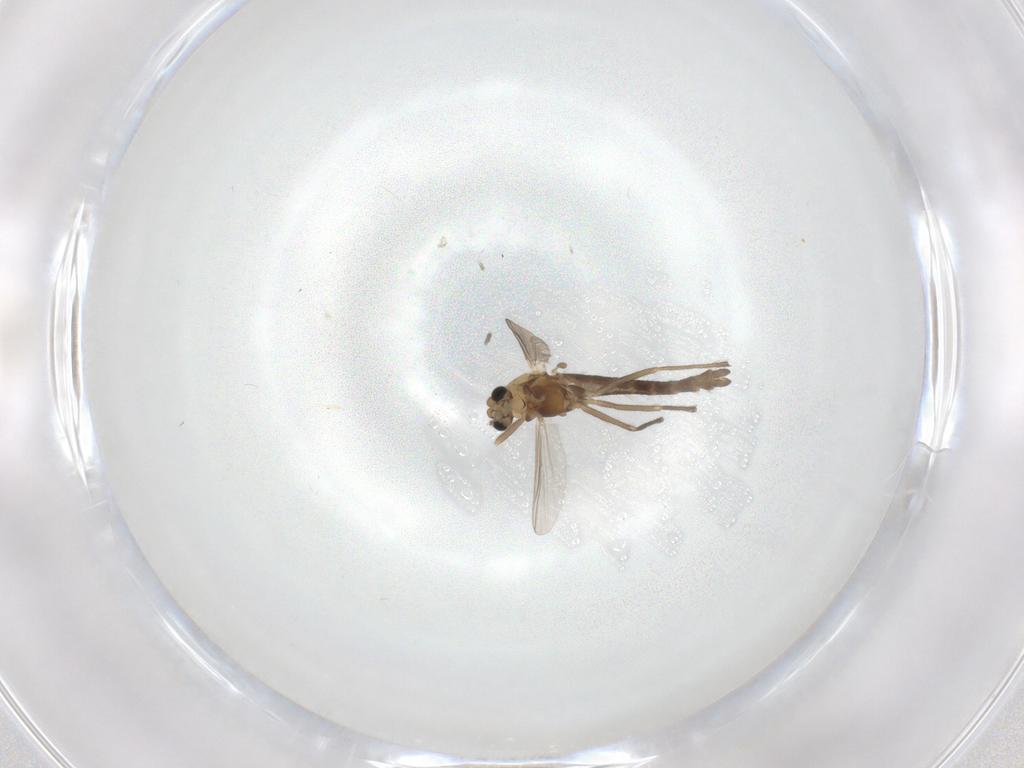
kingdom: Animalia
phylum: Arthropoda
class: Insecta
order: Diptera
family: Chironomidae
